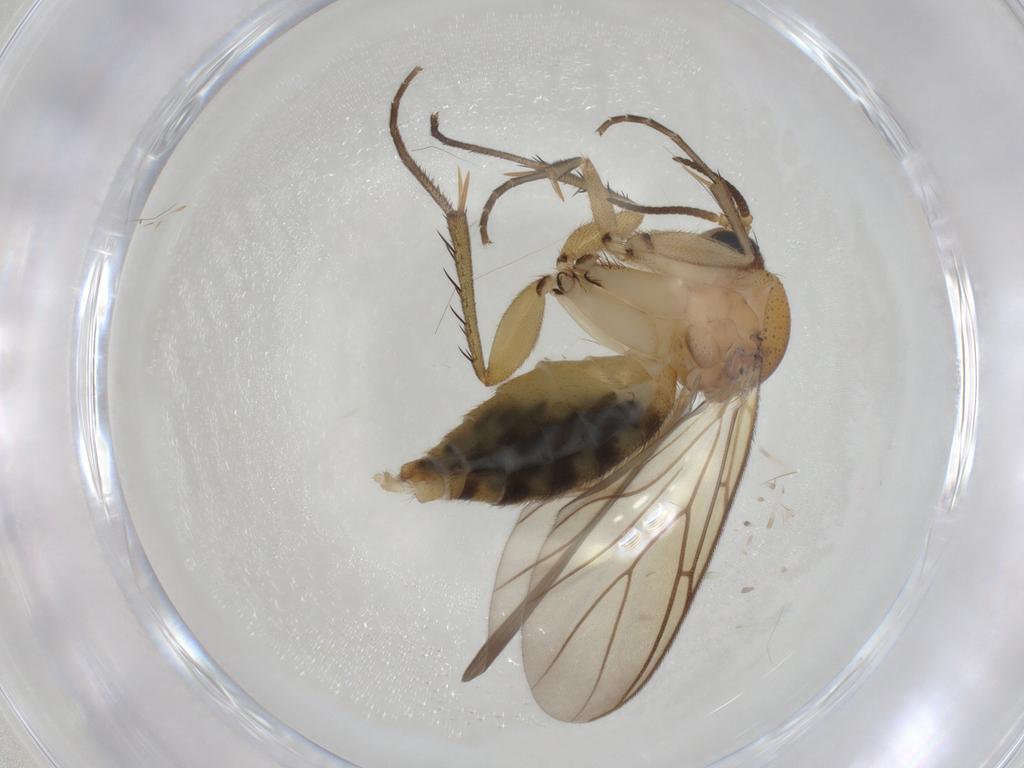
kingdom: Animalia
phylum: Arthropoda
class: Insecta
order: Diptera
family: Mycetophilidae
